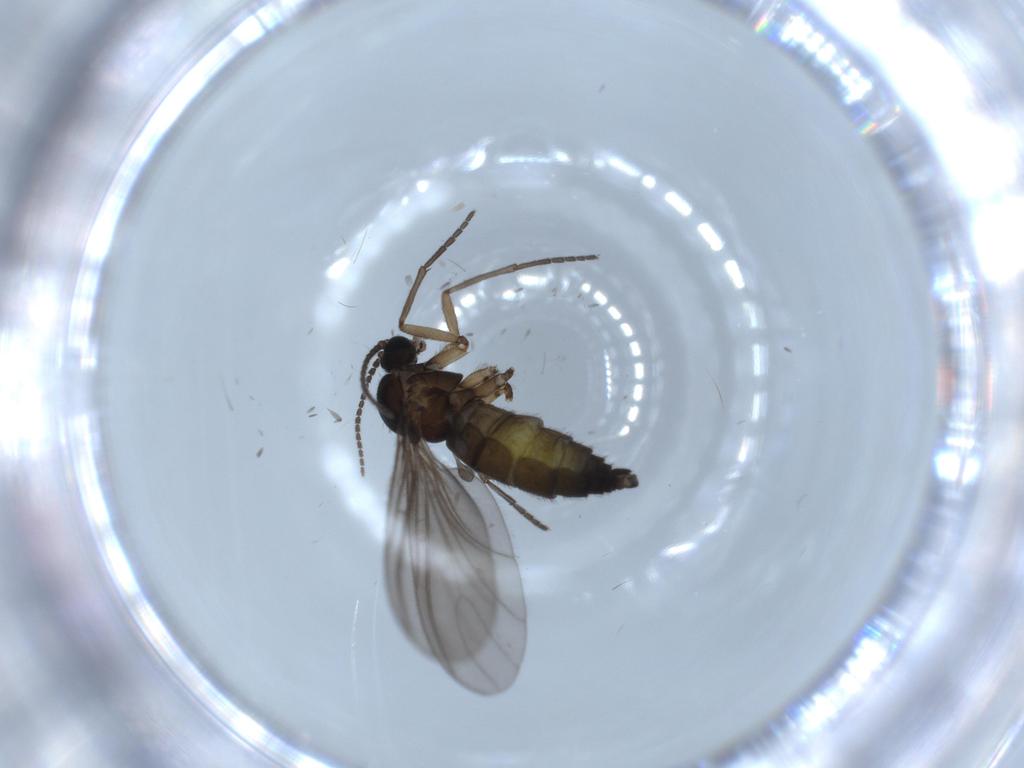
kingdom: Animalia
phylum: Arthropoda
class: Insecta
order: Diptera
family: Sciaridae
